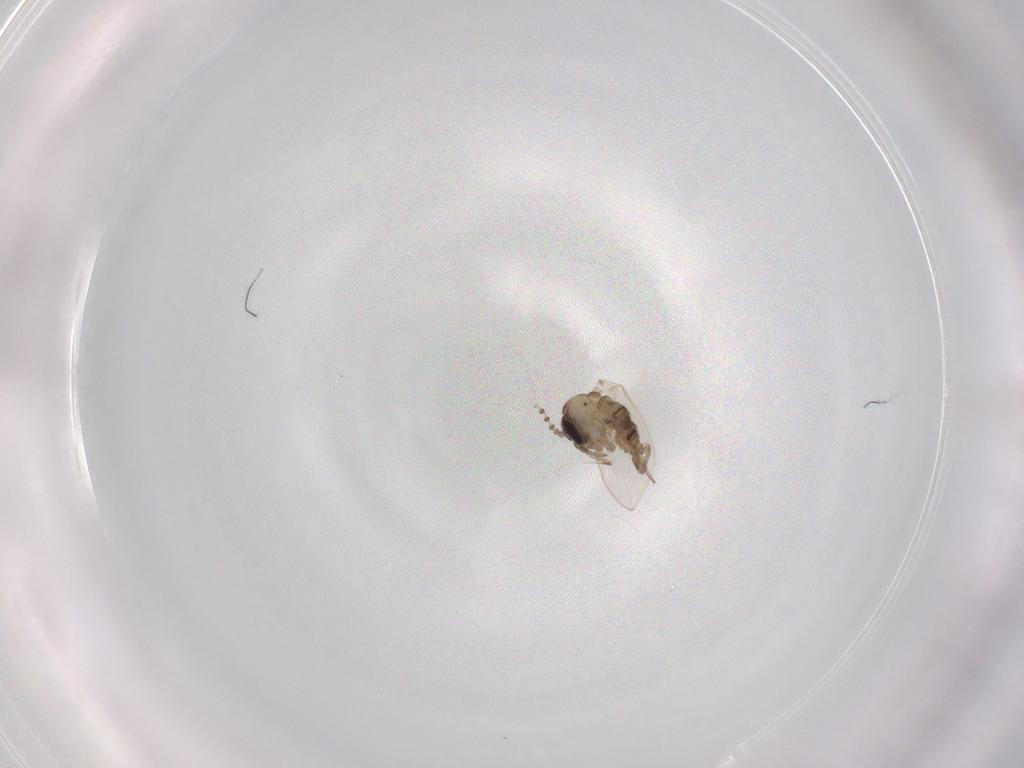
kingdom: Animalia
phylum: Arthropoda
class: Insecta
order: Diptera
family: Psychodidae
